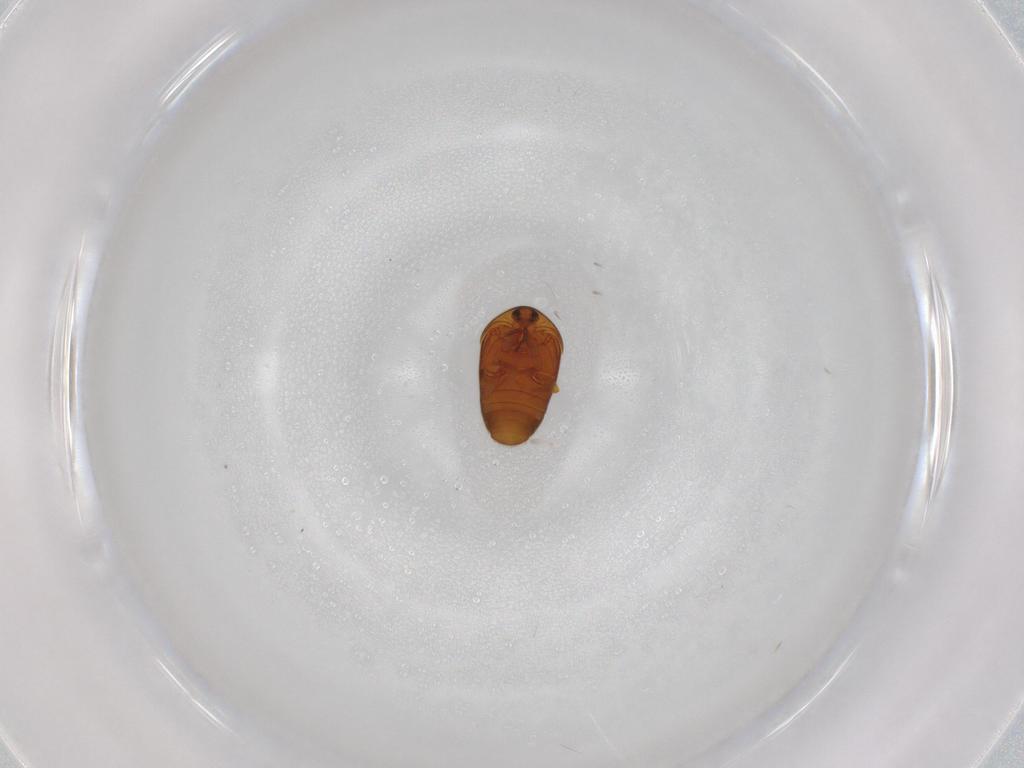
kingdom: Animalia
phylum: Arthropoda
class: Insecta
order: Coleoptera
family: Corylophidae
